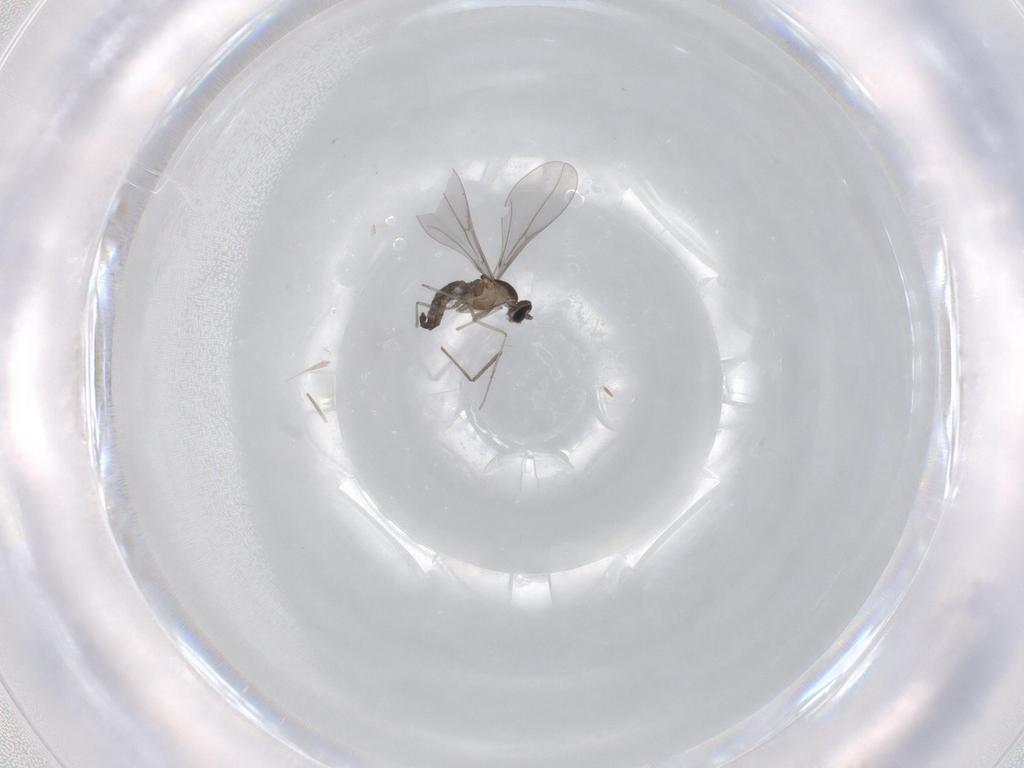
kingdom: Animalia
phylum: Arthropoda
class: Insecta
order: Diptera
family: Cecidomyiidae
